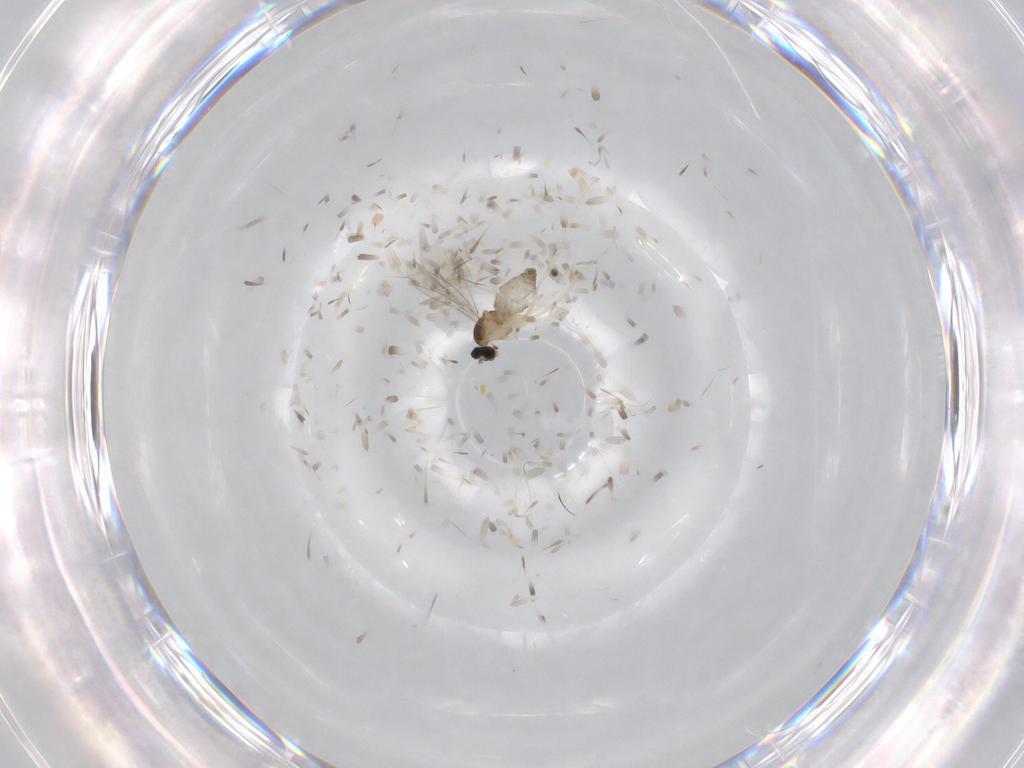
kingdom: Animalia
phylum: Arthropoda
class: Insecta
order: Diptera
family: Cecidomyiidae
